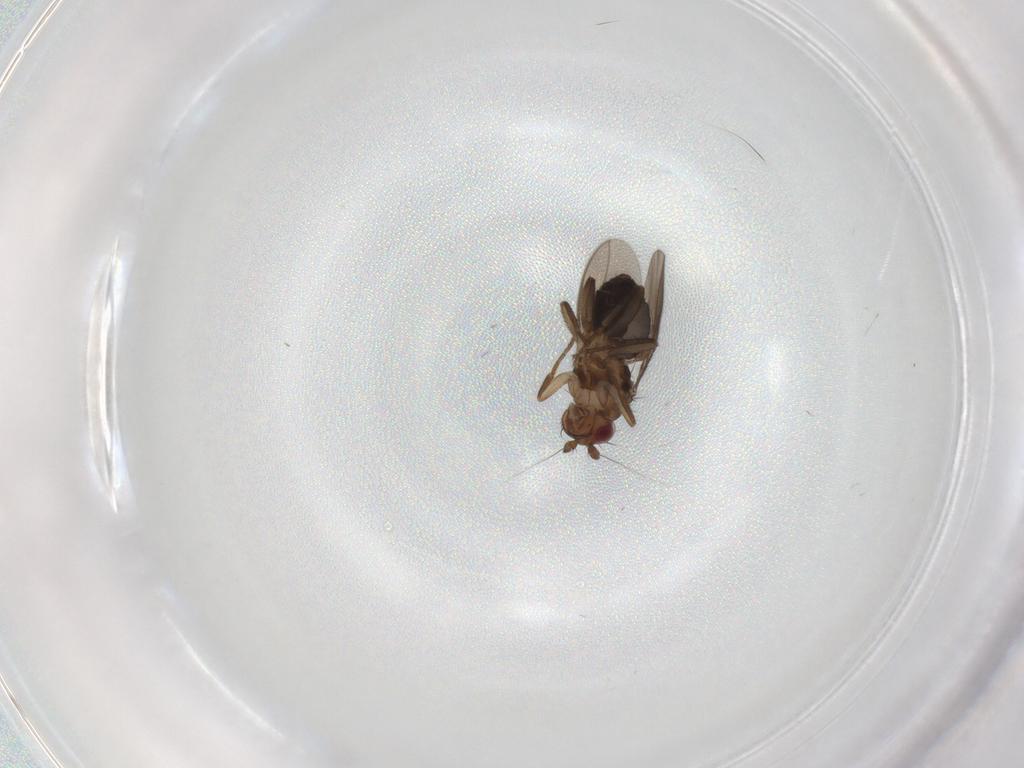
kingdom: Animalia
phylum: Arthropoda
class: Insecta
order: Diptera
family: Sphaeroceridae
